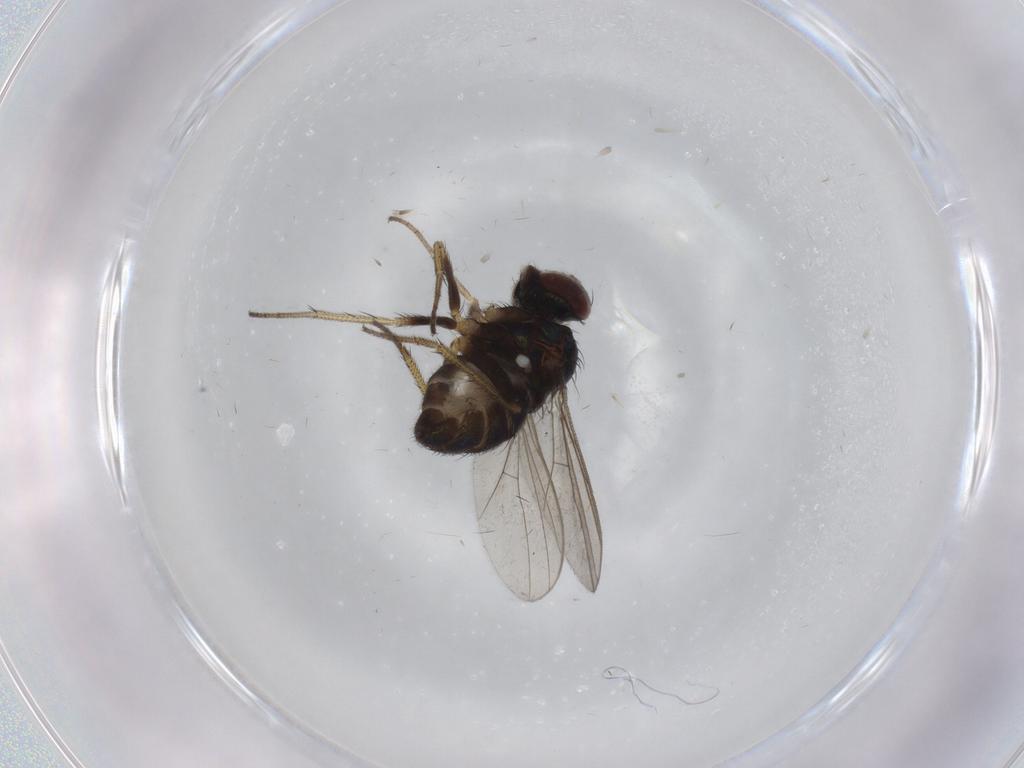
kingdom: Animalia
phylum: Arthropoda
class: Insecta
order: Diptera
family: Dolichopodidae
